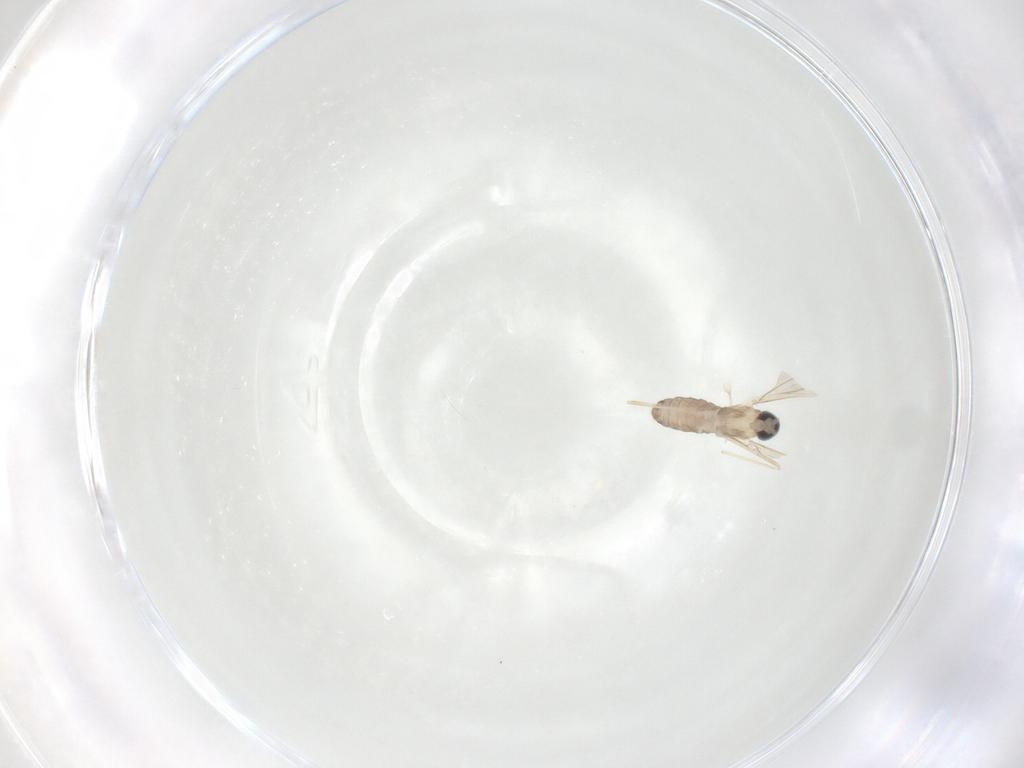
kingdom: Animalia
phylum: Arthropoda
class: Insecta
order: Diptera
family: Cecidomyiidae
